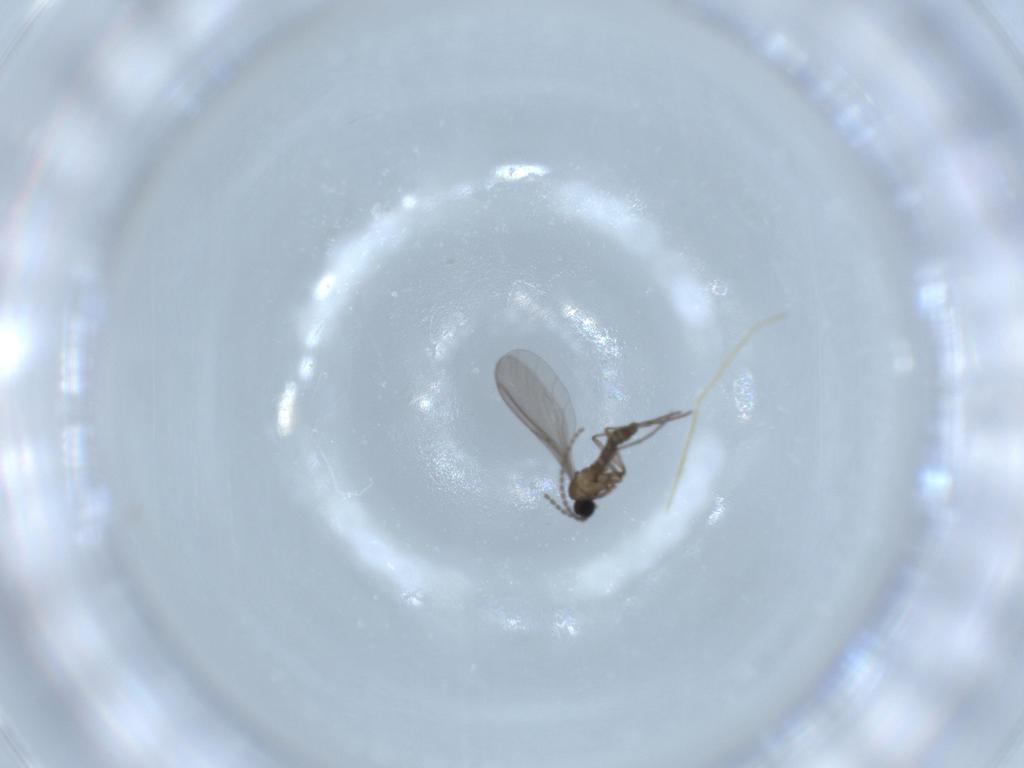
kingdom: Animalia
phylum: Arthropoda
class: Insecta
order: Diptera
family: Sciaridae
